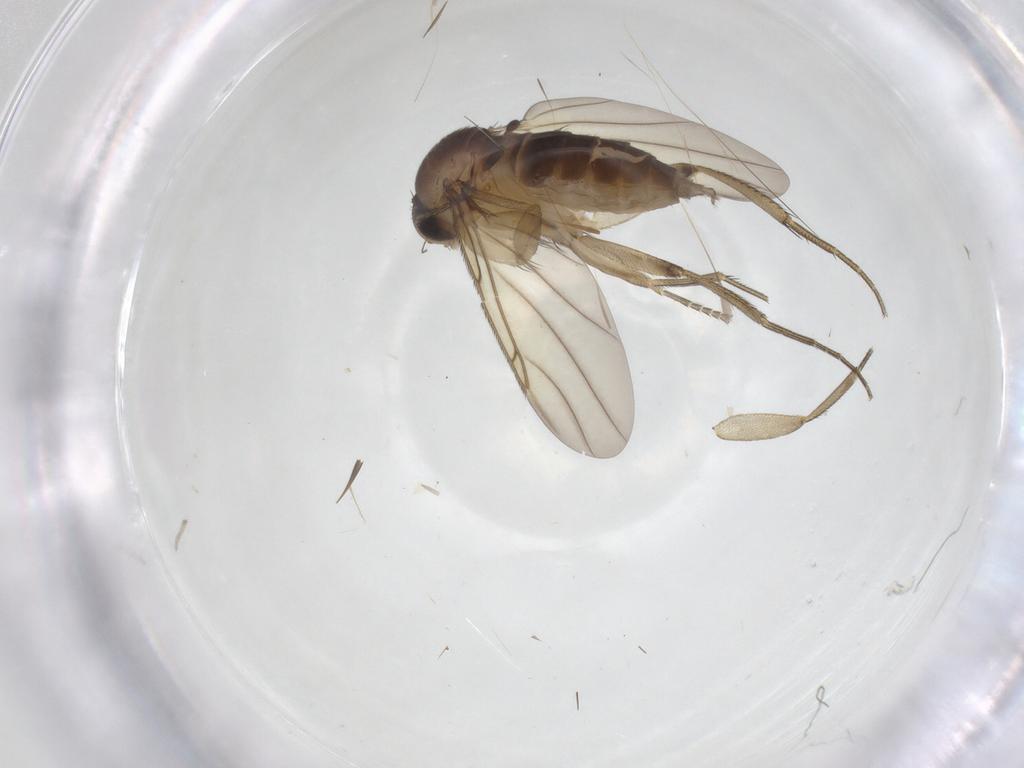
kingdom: Animalia
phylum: Arthropoda
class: Insecta
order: Diptera
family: Phoridae
